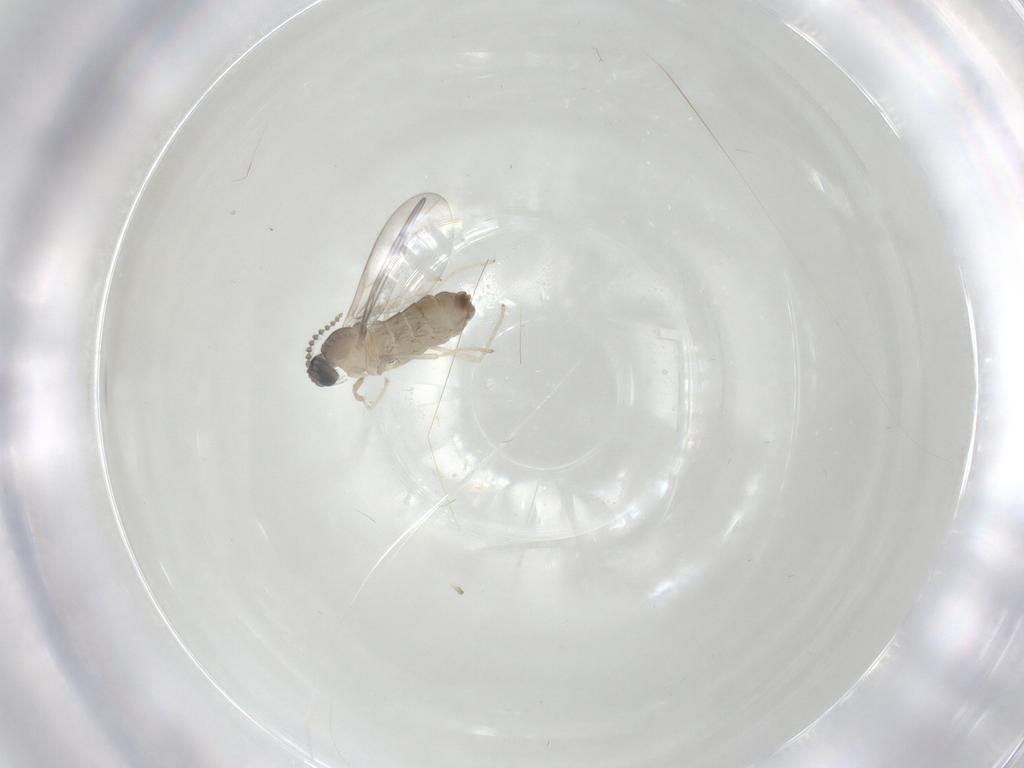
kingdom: Animalia
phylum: Arthropoda
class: Insecta
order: Diptera
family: Cecidomyiidae
